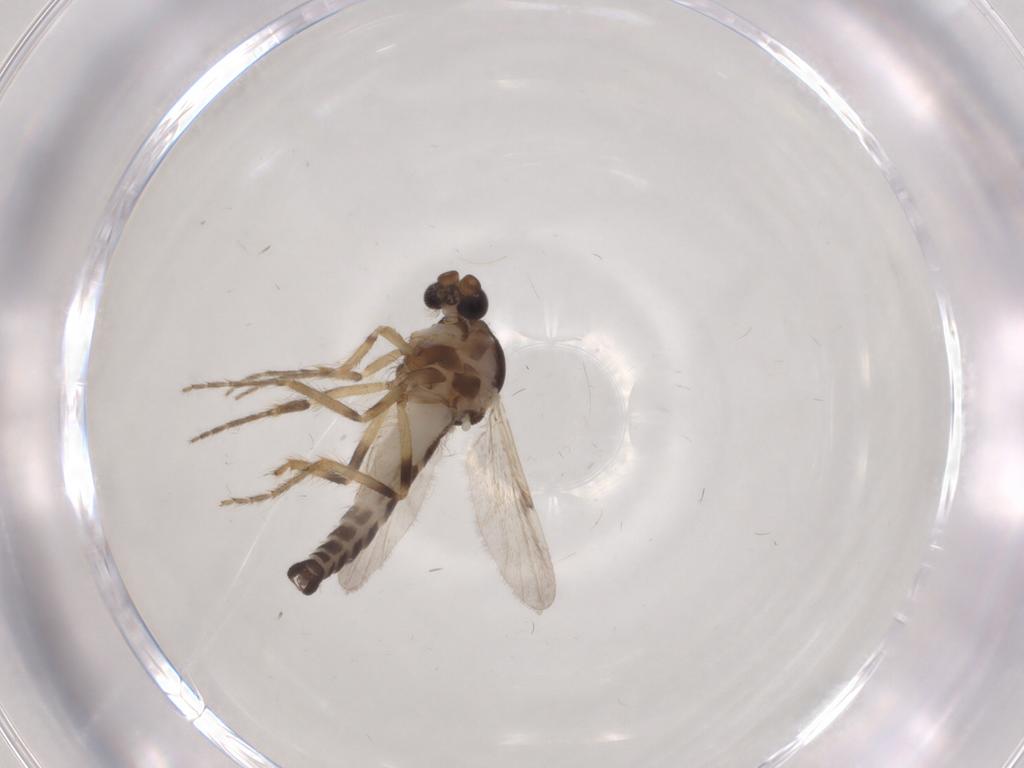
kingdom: Animalia
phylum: Arthropoda
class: Insecta
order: Diptera
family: Ceratopogonidae
